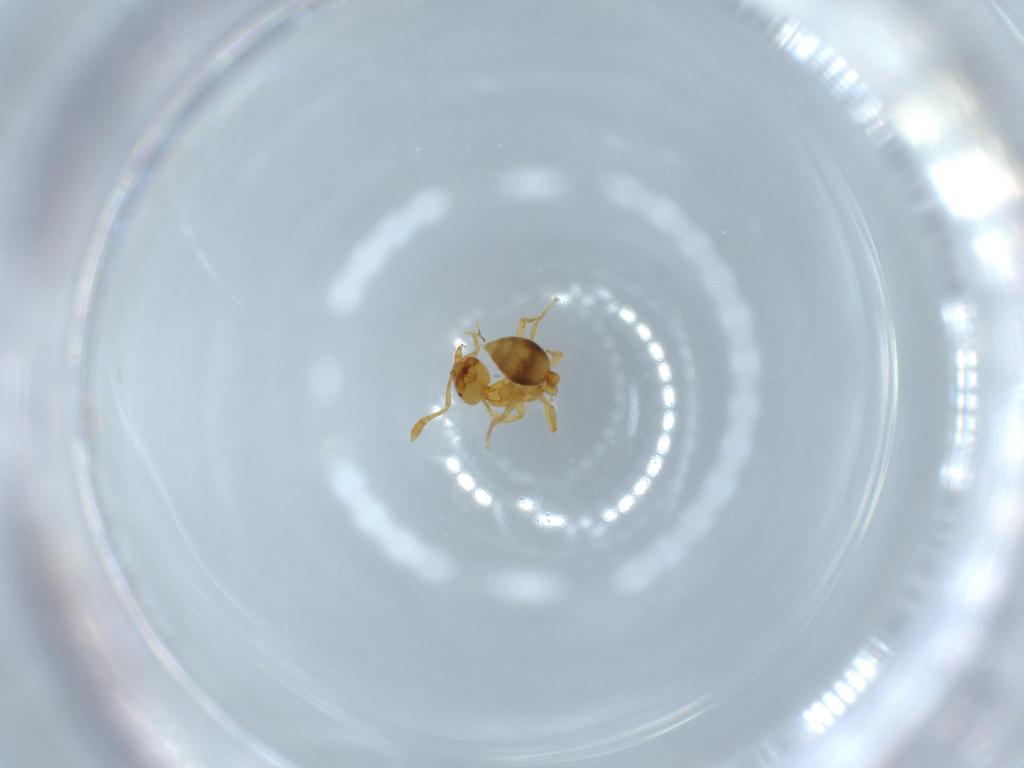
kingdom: Animalia
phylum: Arthropoda
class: Insecta
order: Hymenoptera
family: Formicidae
